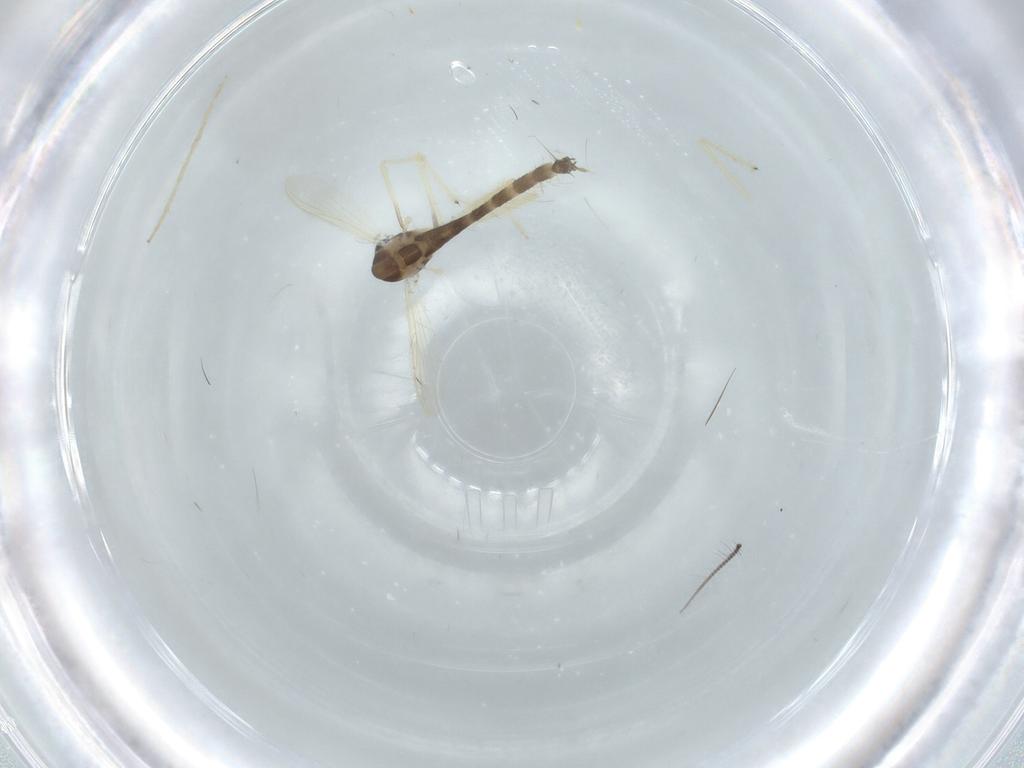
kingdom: Animalia
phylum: Arthropoda
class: Insecta
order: Diptera
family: Chironomidae
